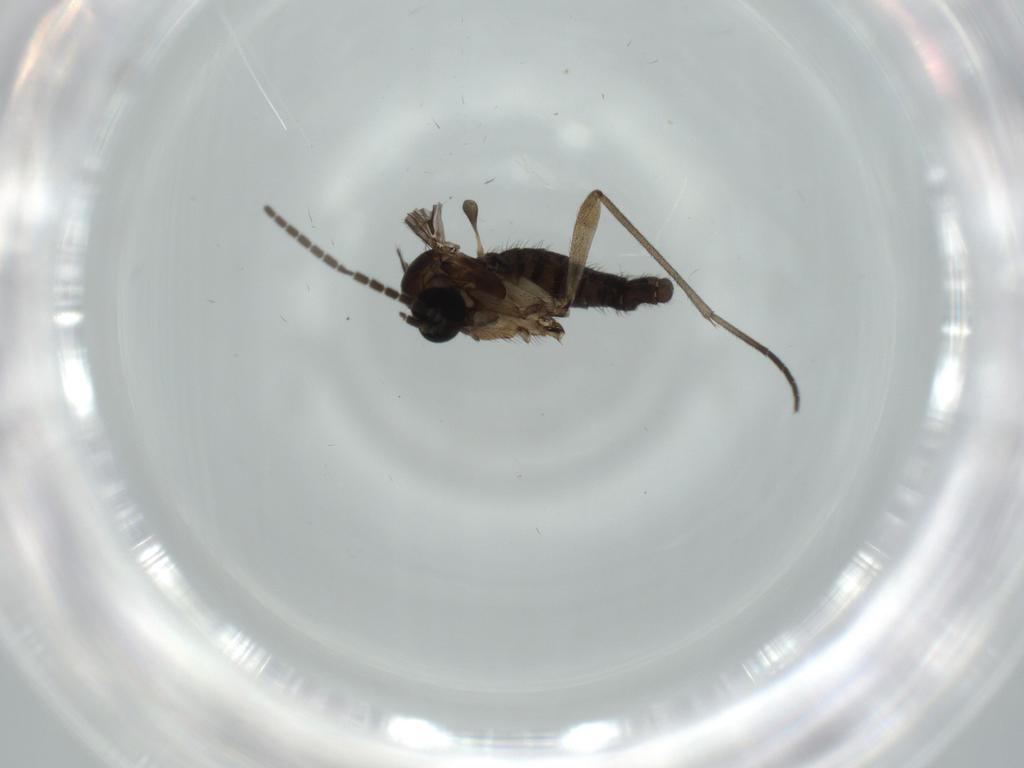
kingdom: Animalia
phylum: Arthropoda
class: Insecta
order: Diptera
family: Sciaridae
